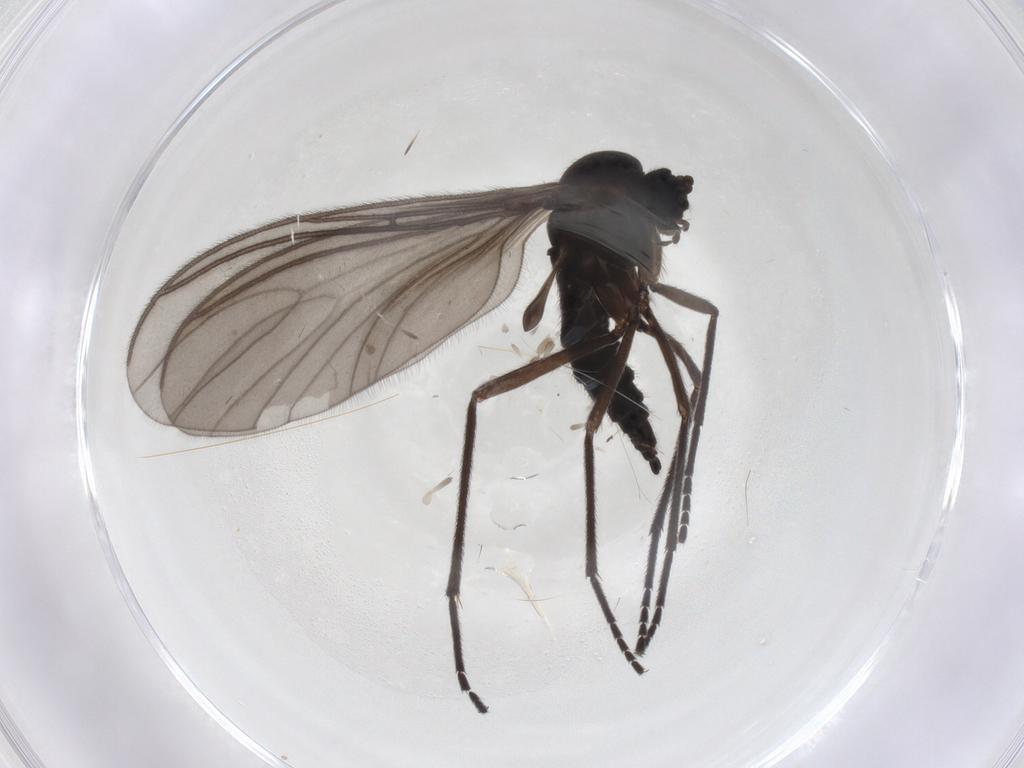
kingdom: Animalia
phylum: Arthropoda
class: Insecta
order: Diptera
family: Sciaridae
